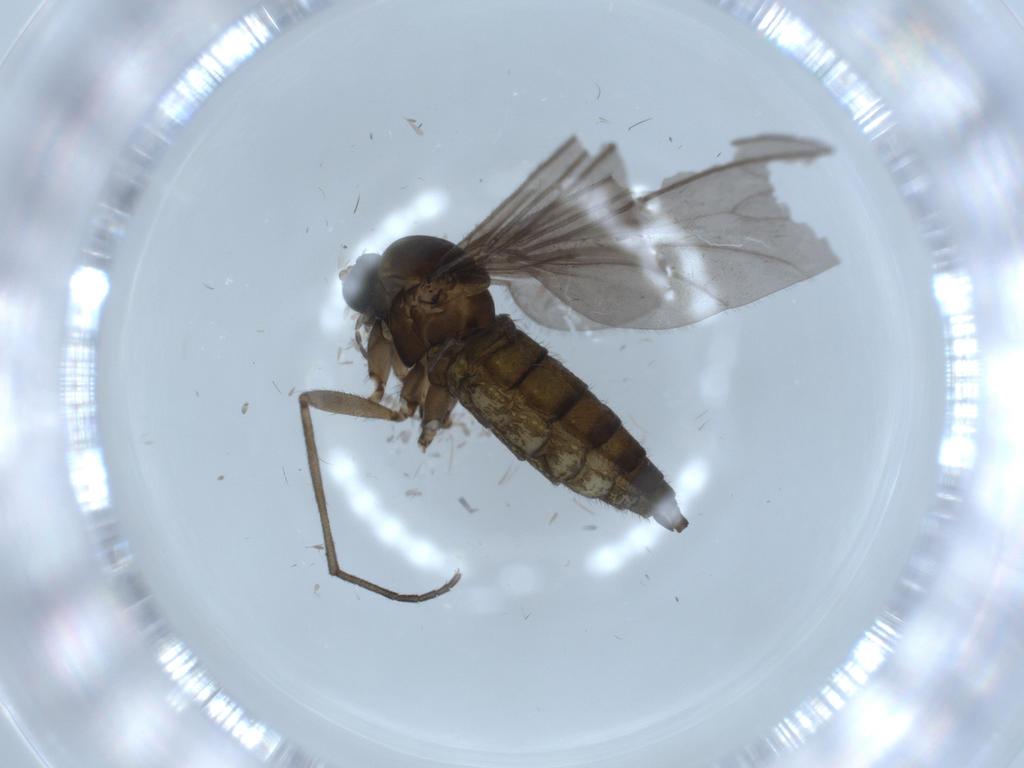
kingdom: Animalia
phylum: Arthropoda
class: Insecta
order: Diptera
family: Sciaridae
